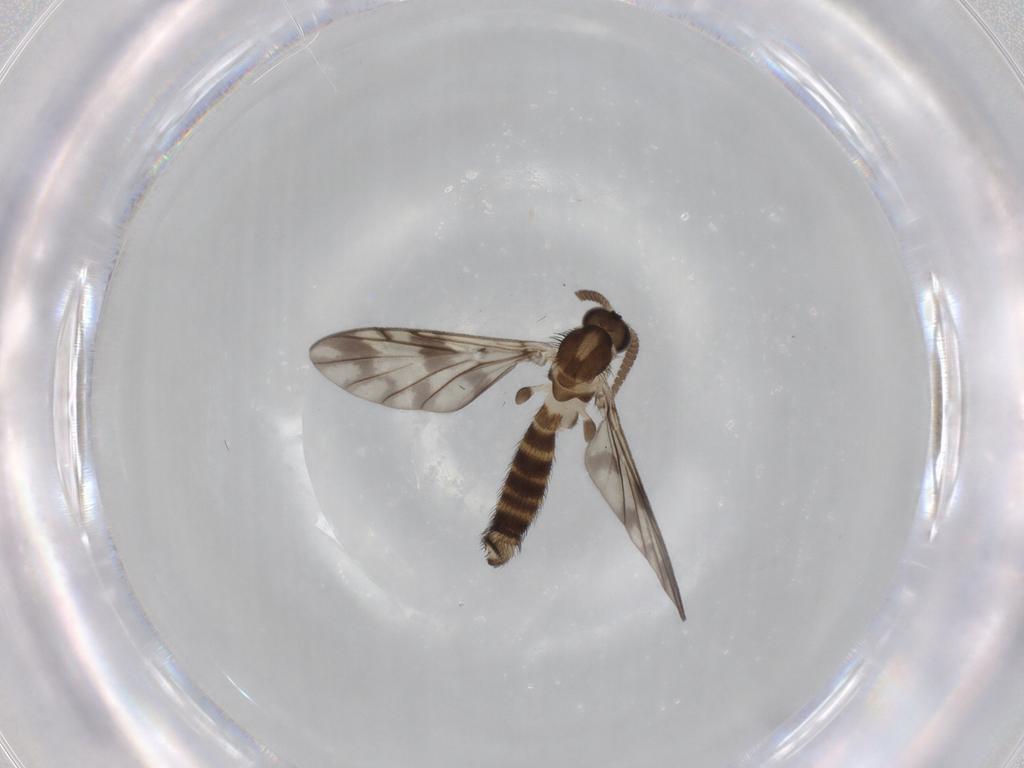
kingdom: Animalia
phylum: Arthropoda
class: Insecta
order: Diptera
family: Keroplatidae
